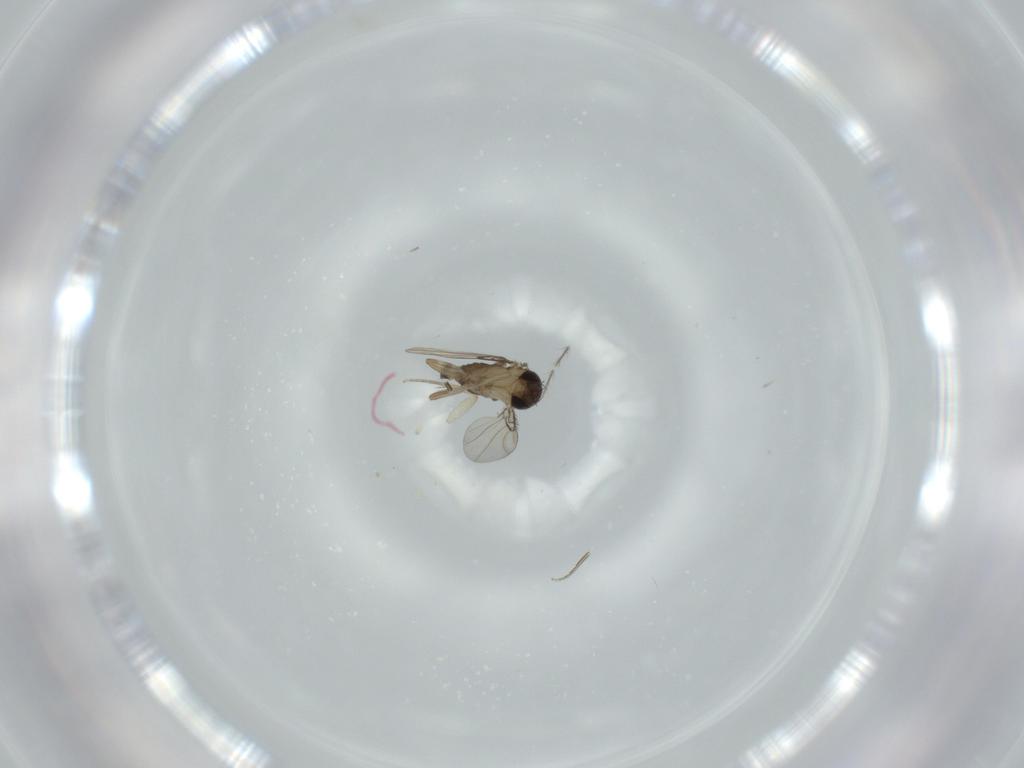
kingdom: Animalia
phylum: Arthropoda
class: Insecta
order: Diptera
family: Phoridae
